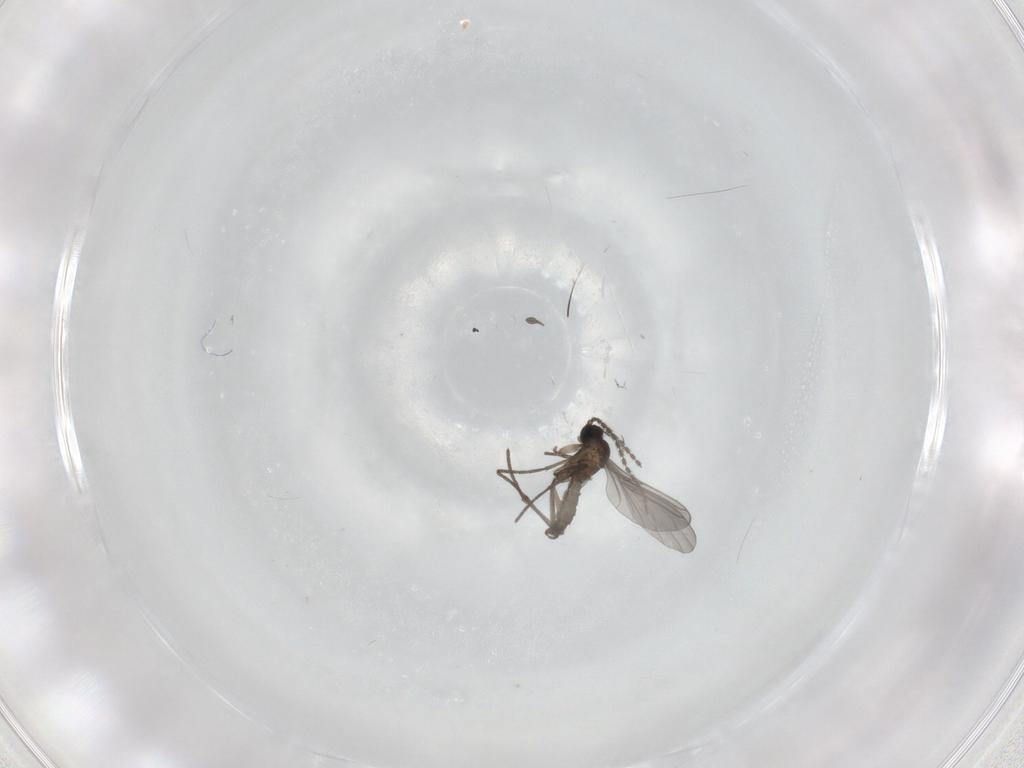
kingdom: Animalia
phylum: Arthropoda
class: Insecta
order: Diptera
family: Sciaridae
